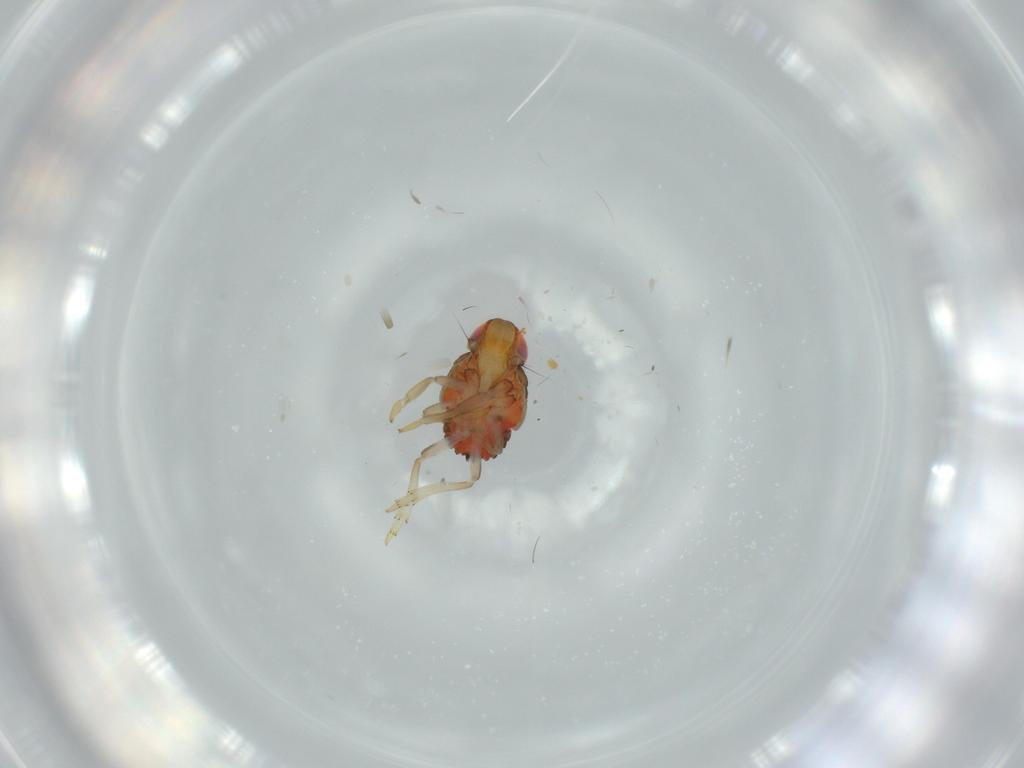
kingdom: Animalia
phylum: Arthropoda
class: Insecta
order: Hemiptera
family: Issidae
